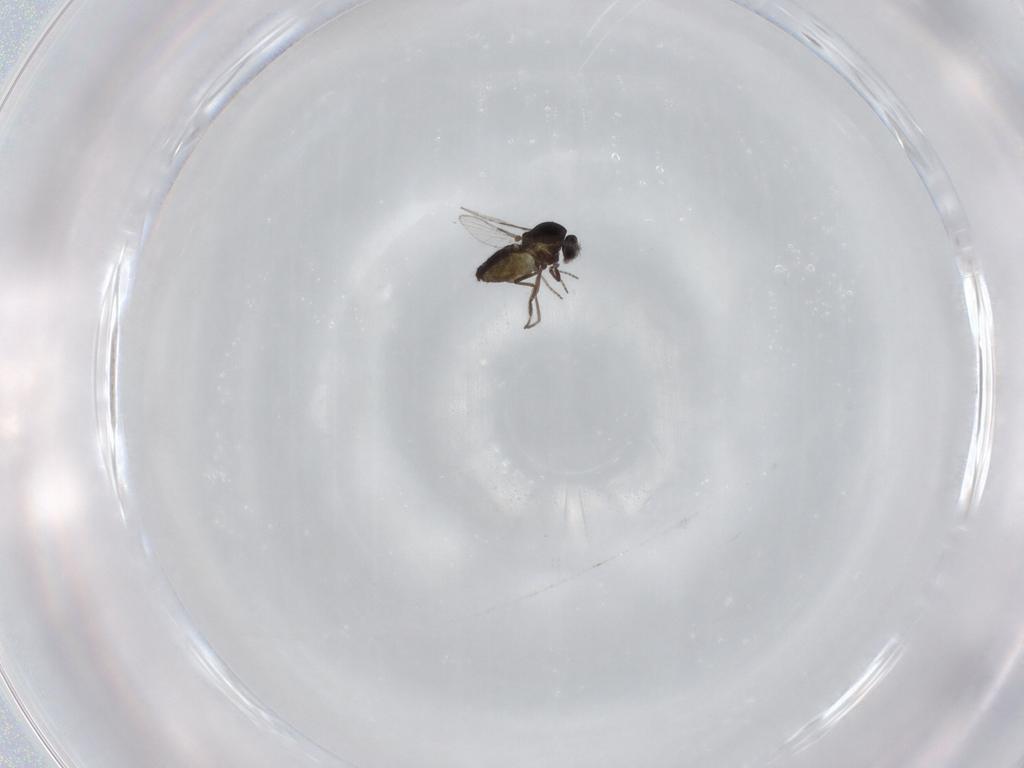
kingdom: Animalia
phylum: Arthropoda
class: Insecta
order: Diptera
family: Ceratopogonidae
